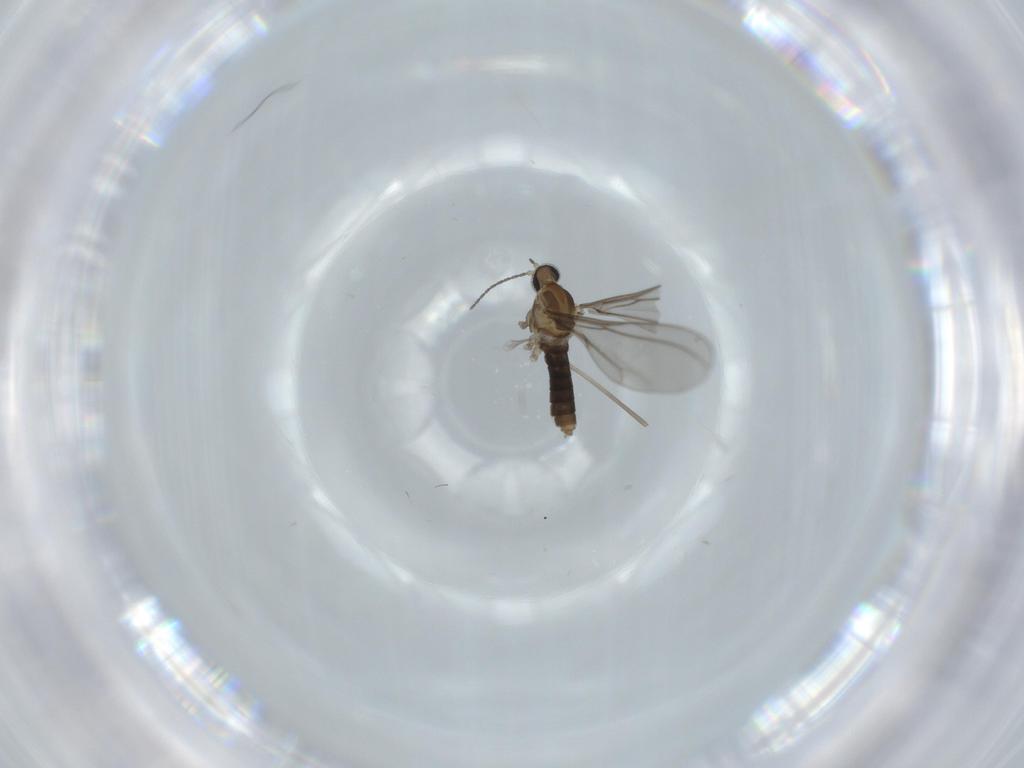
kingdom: Animalia
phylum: Arthropoda
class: Insecta
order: Diptera
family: Cecidomyiidae
